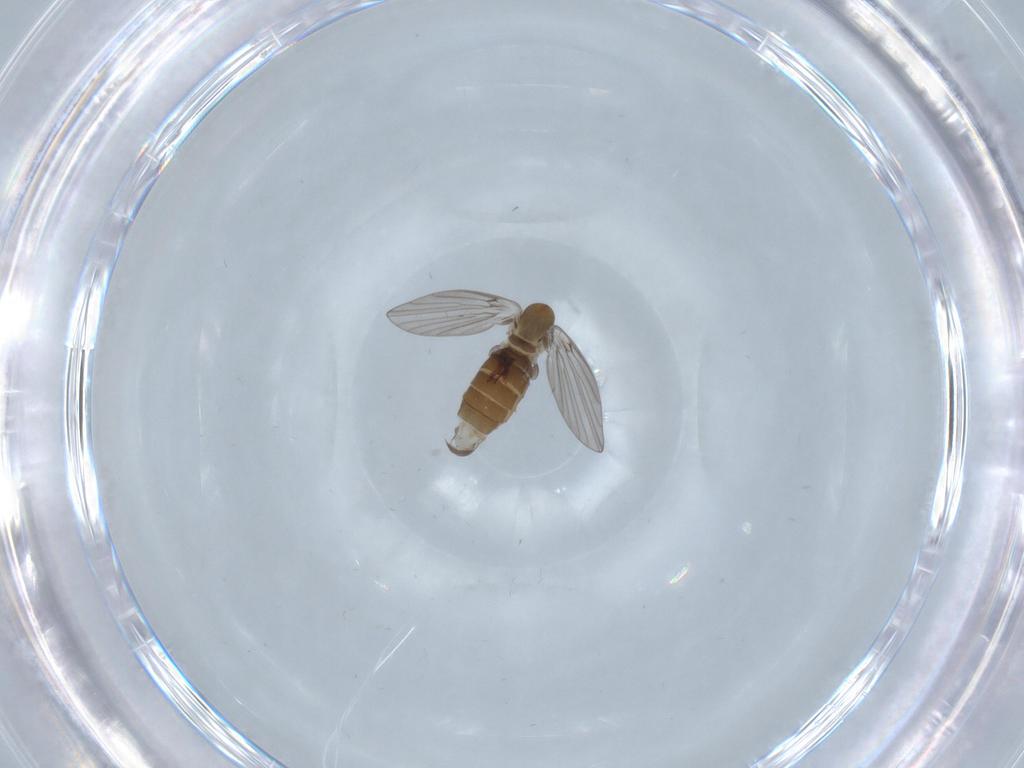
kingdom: Animalia
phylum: Arthropoda
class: Insecta
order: Diptera
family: Psychodidae
